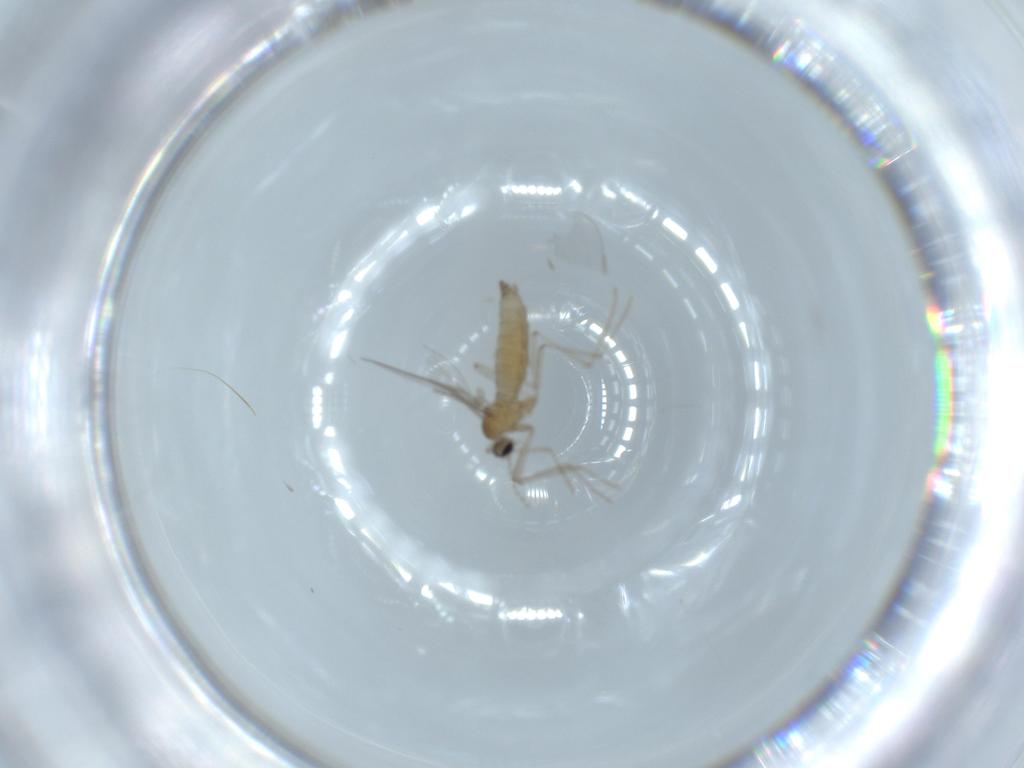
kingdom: Animalia
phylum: Arthropoda
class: Insecta
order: Diptera
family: Cecidomyiidae
